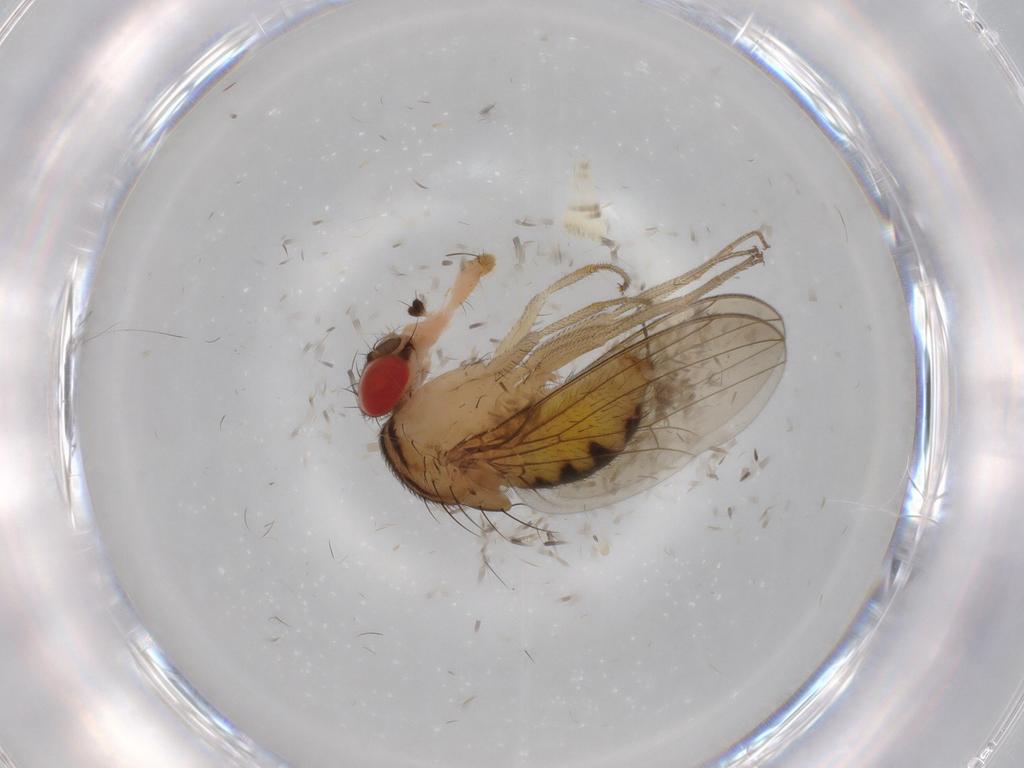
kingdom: Animalia
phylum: Arthropoda
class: Insecta
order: Diptera
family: Drosophilidae
